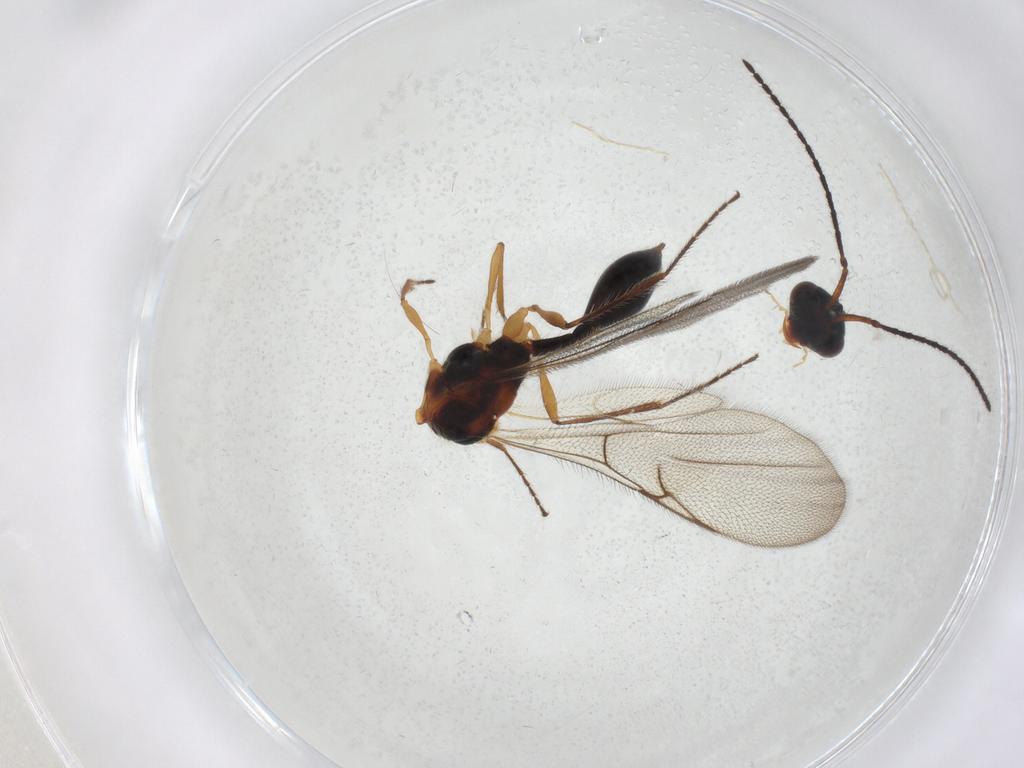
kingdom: Animalia
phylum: Arthropoda
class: Insecta
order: Hymenoptera
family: Diapriidae
